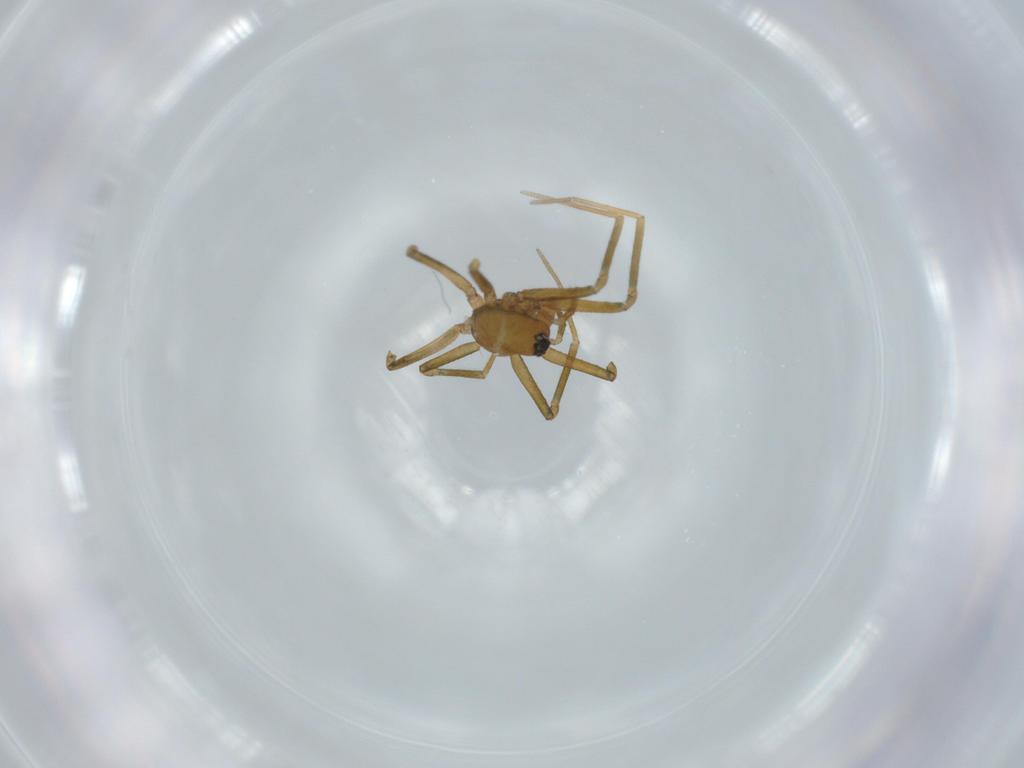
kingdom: Animalia
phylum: Arthropoda
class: Arachnida
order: Araneae
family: Linyphiidae
